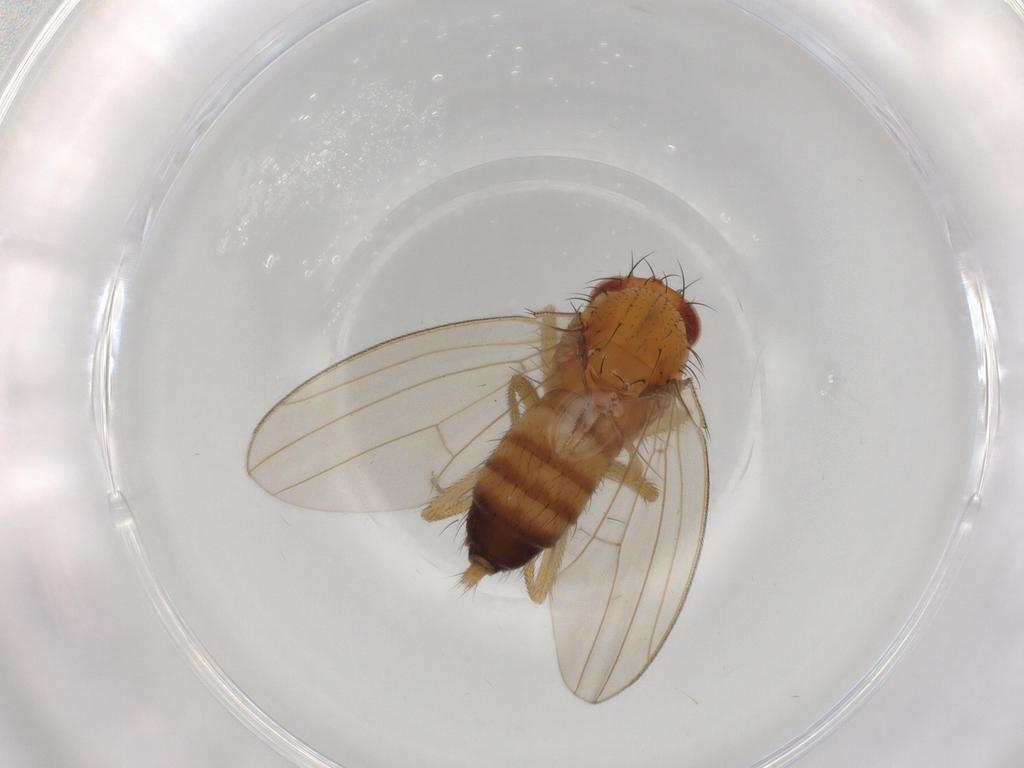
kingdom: Animalia
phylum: Arthropoda
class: Insecta
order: Diptera
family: Drosophilidae
